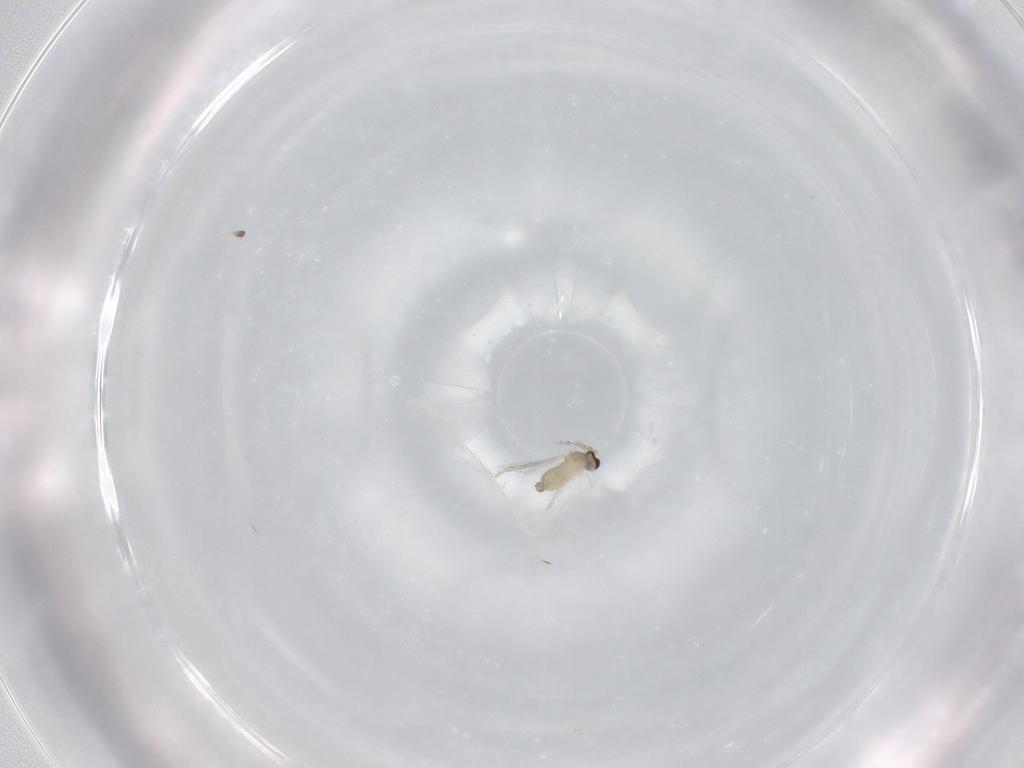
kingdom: Animalia
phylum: Arthropoda
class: Insecta
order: Diptera
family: Cecidomyiidae
